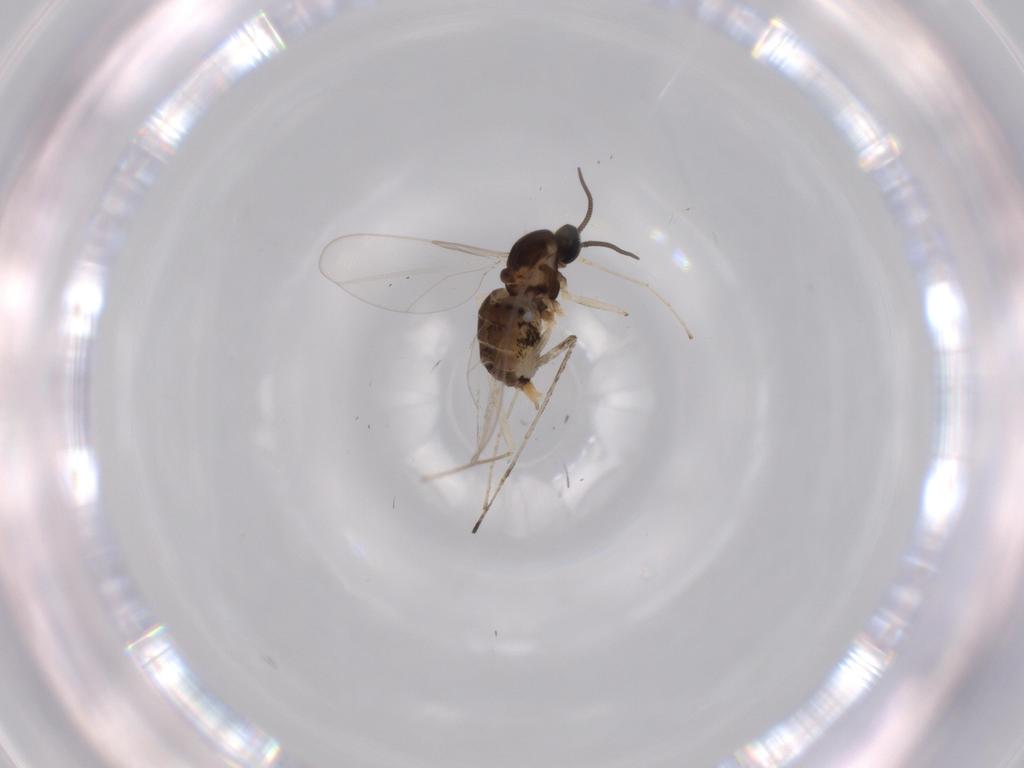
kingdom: Animalia
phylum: Arthropoda
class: Insecta
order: Diptera
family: Cecidomyiidae
